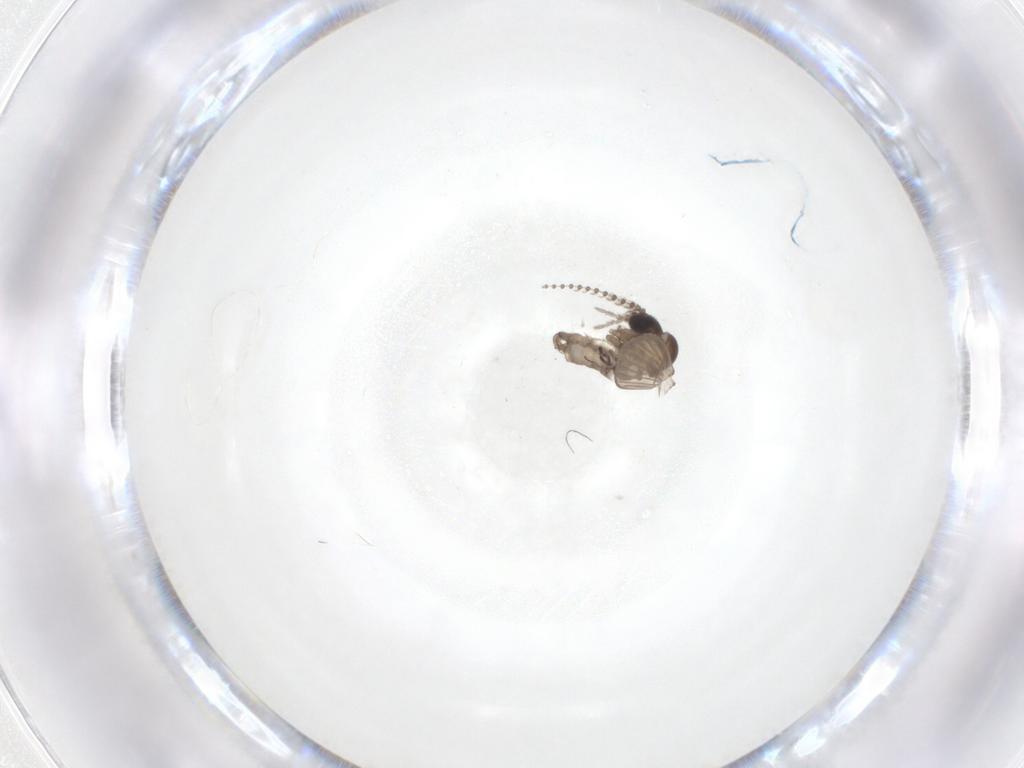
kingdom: Animalia
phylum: Arthropoda
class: Insecta
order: Diptera
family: Psychodidae
